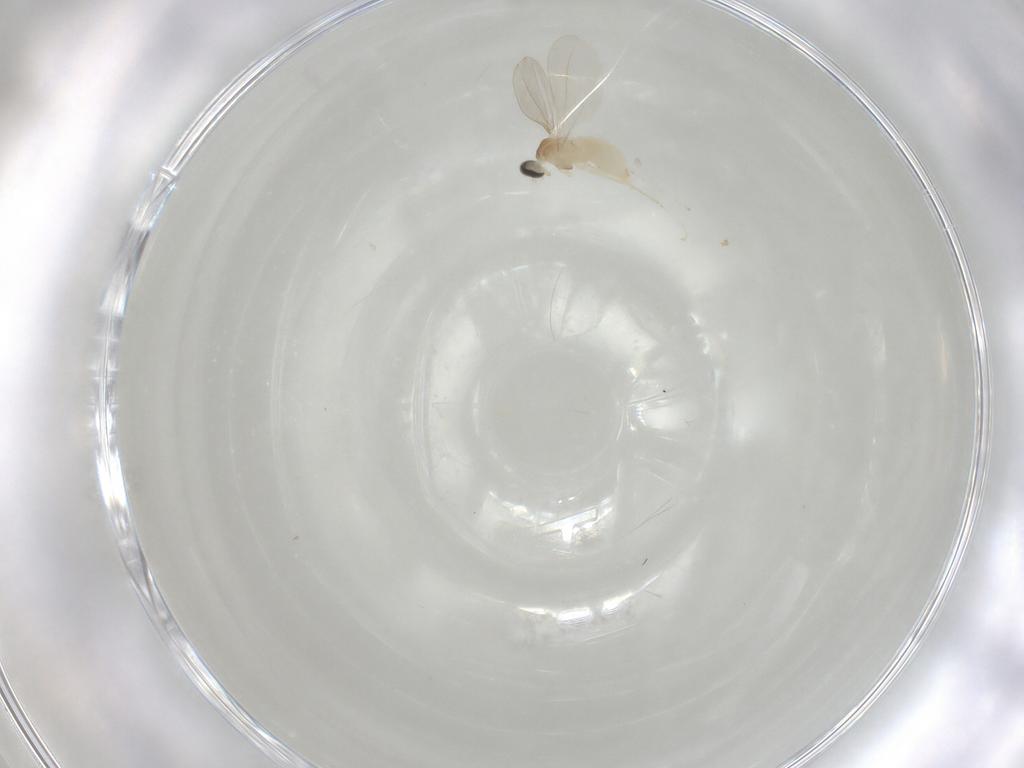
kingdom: Animalia
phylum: Arthropoda
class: Insecta
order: Diptera
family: Cecidomyiidae
